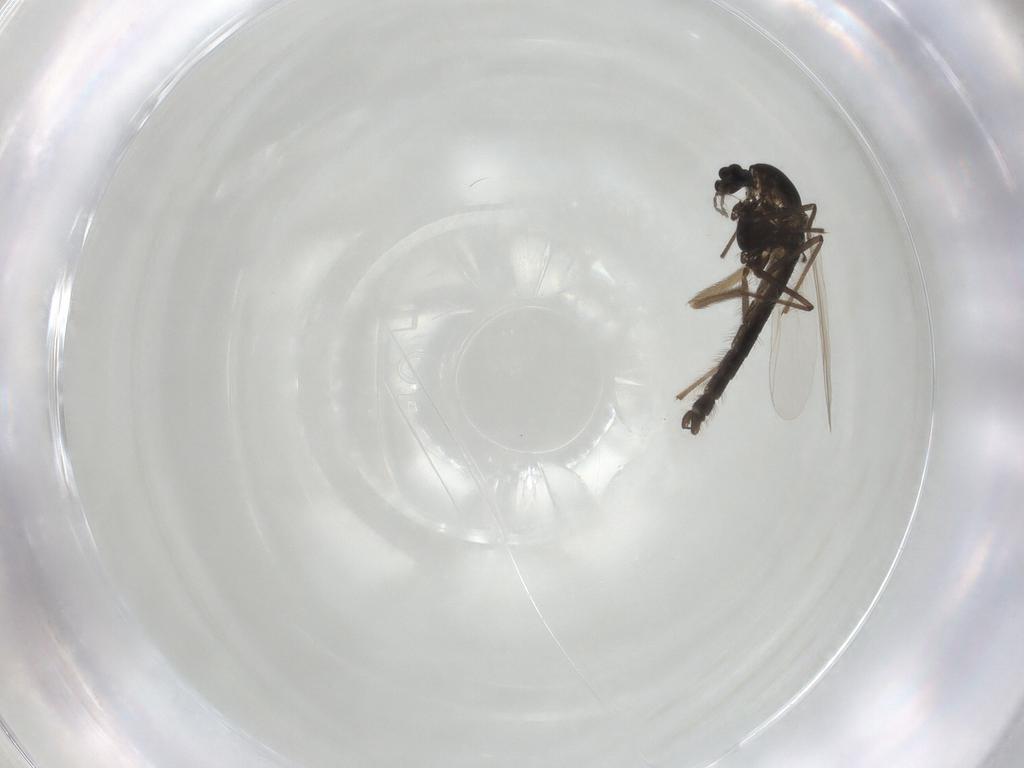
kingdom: Animalia
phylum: Arthropoda
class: Insecta
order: Diptera
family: Chironomidae
